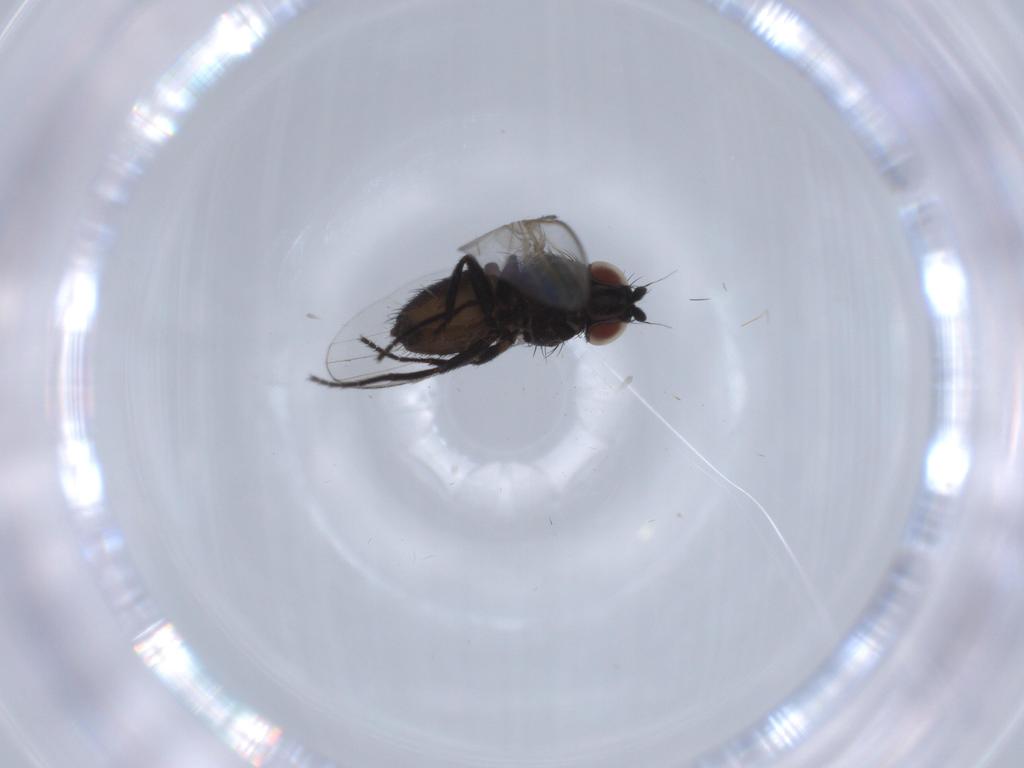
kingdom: Animalia
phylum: Arthropoda
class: Insecta
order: Diptera
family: Milichiidae
